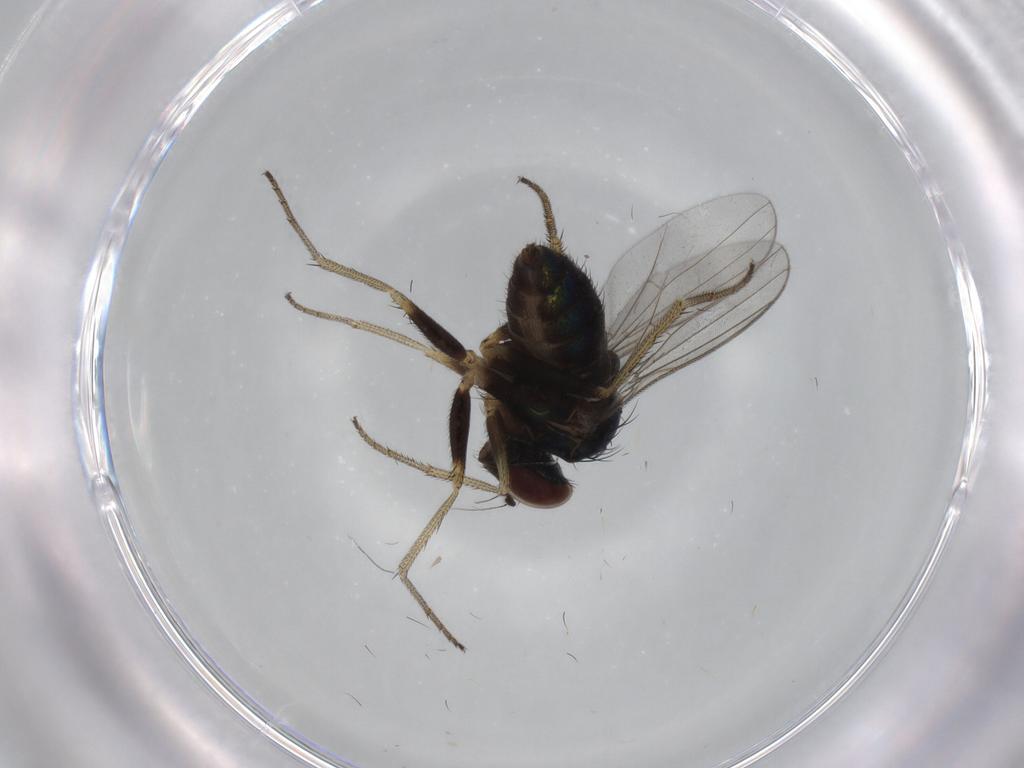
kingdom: Animalia
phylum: Arthropoda
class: Insecta
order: Diptera
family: Dolichopodidae
